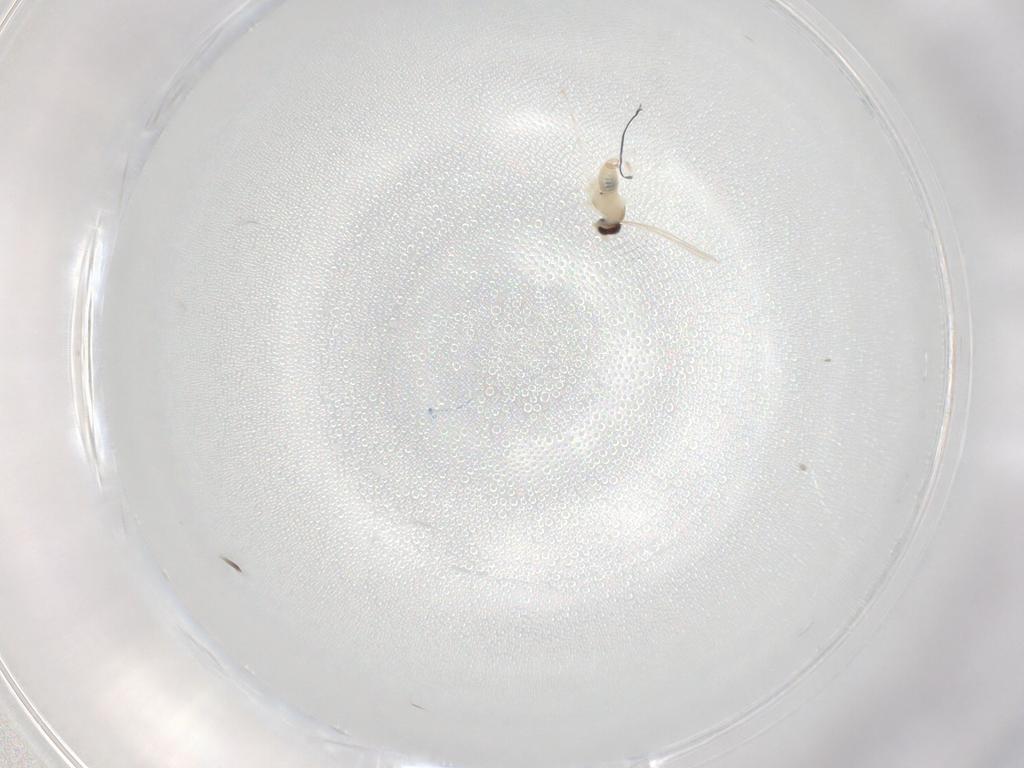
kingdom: Animalia
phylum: Arthropoda
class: Insecta
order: Diptera
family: Cecidomyiidae
